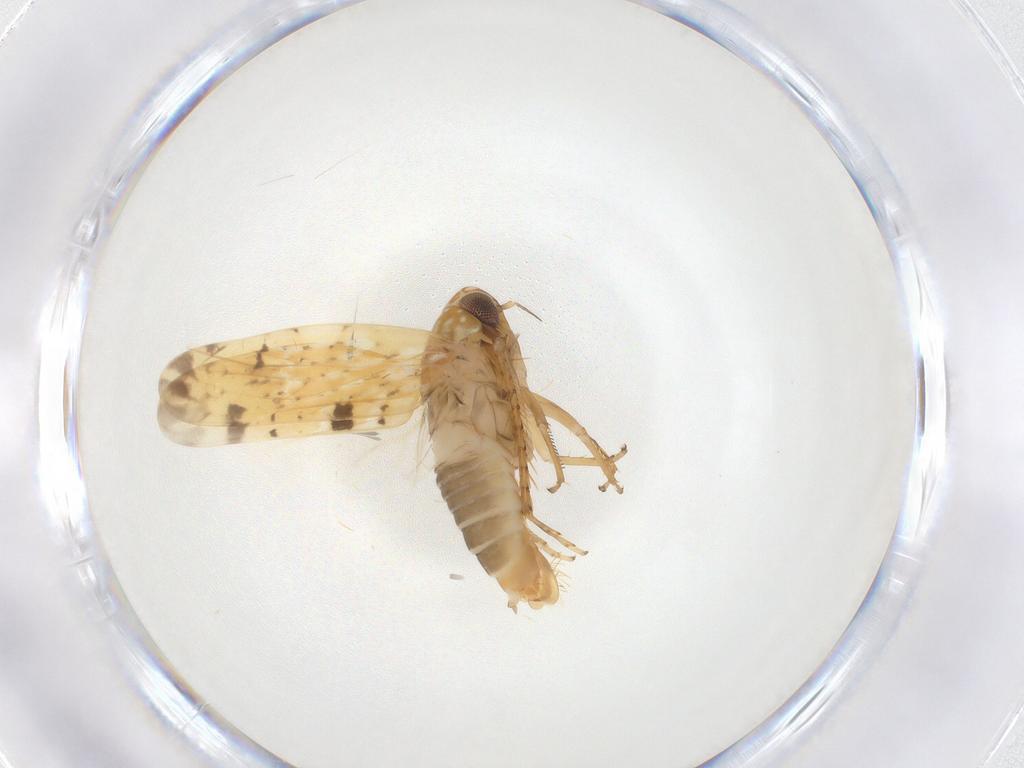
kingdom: Animalia
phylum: Arthropoda
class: Insecta
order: Hemiptera
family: Cicadellidae
